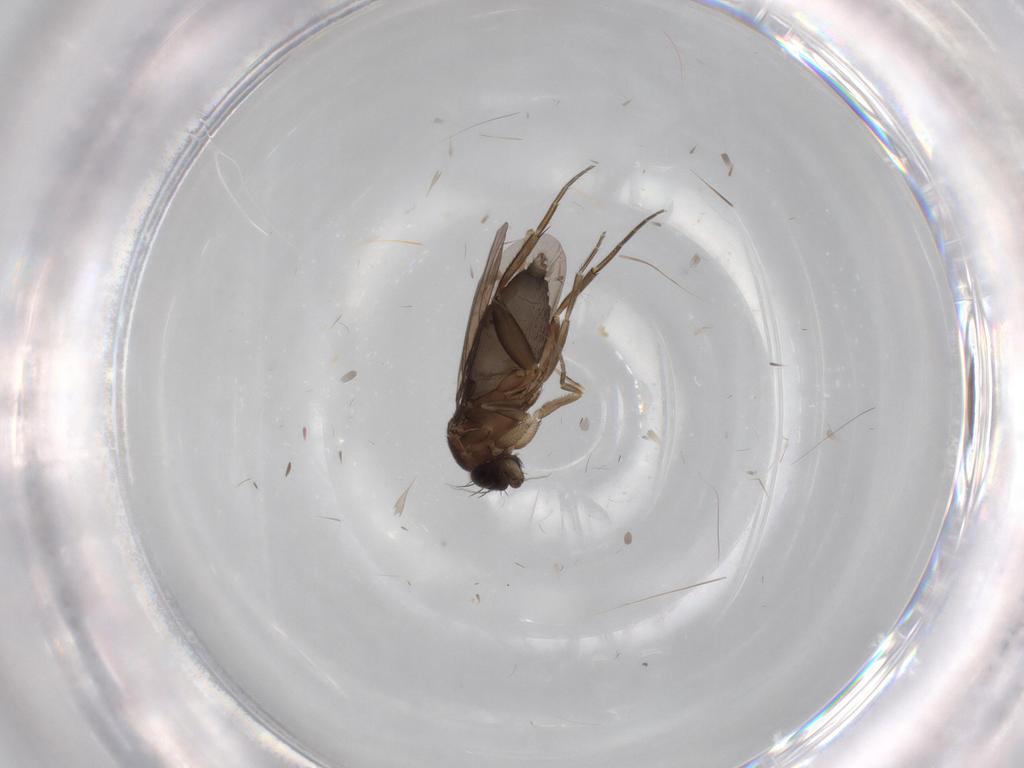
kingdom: Animalia
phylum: Arthropoda
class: Insecta
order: Diptera
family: Phoridae
